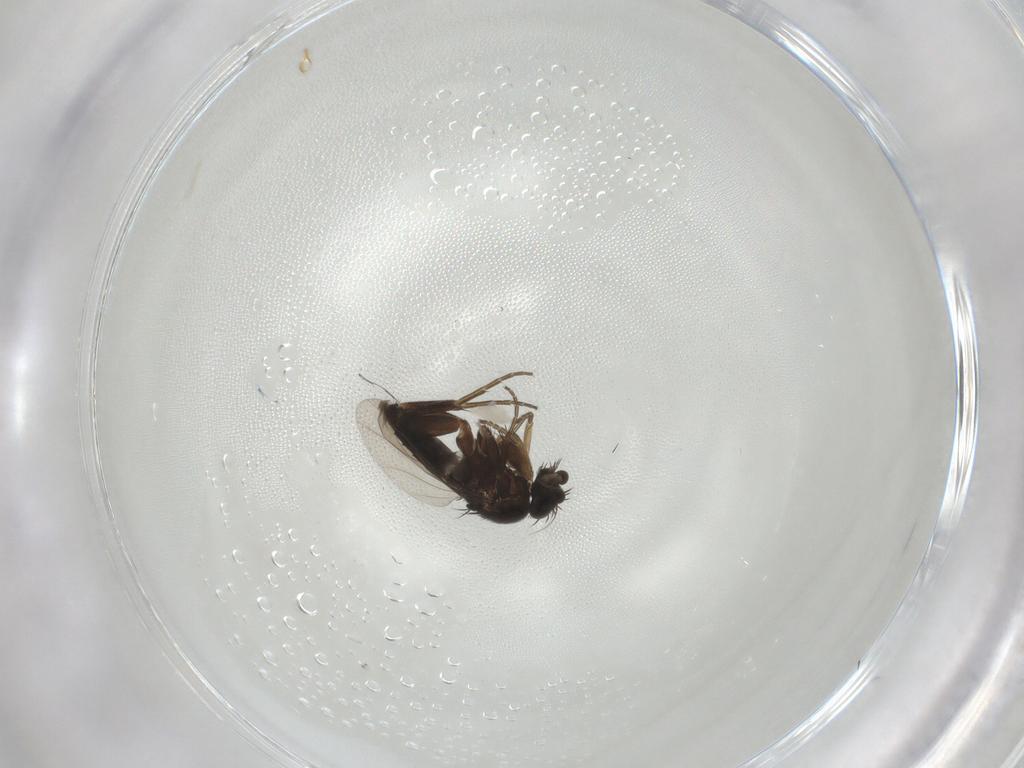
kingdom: Animalia
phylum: Arthropoda
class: Insecta
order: Diptera
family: Phoridae
